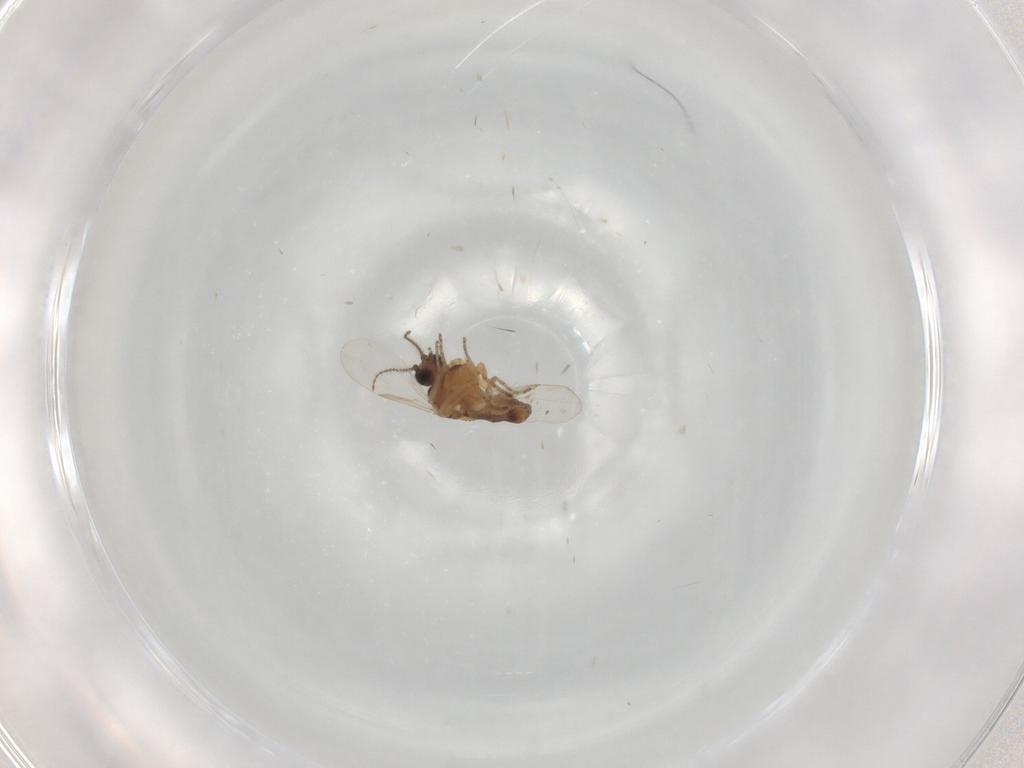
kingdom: Animalia
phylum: Arthropoda
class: Insecta
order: Diptera
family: Ceratopogonidae
